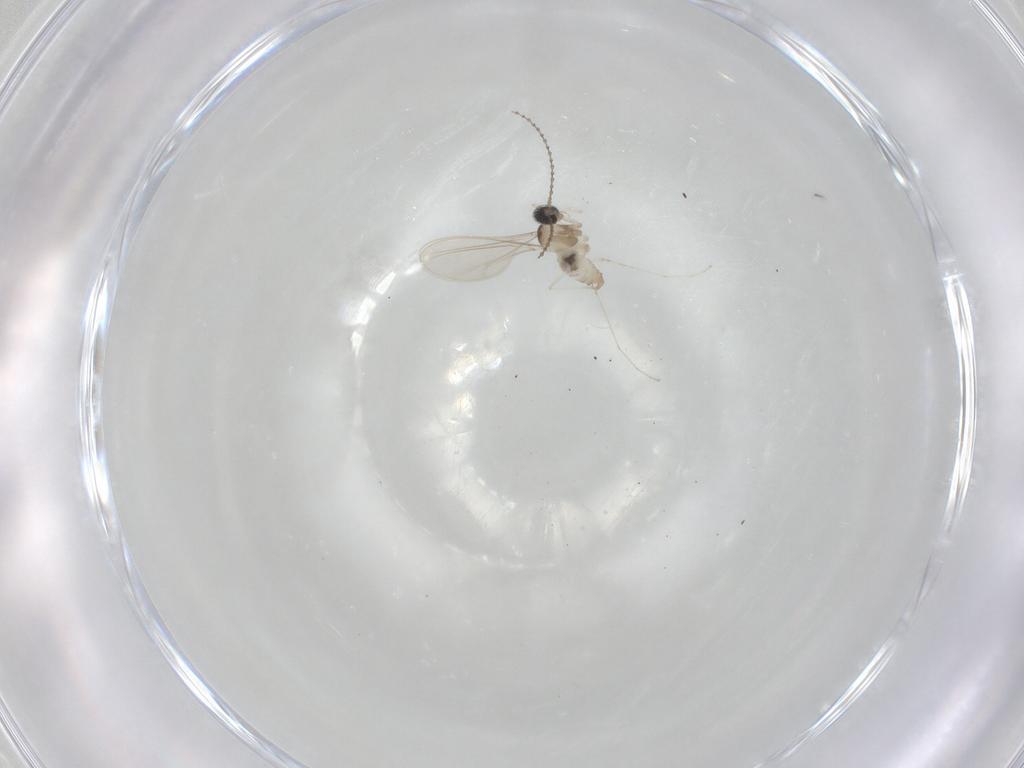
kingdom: Animalia
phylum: Arthropoda
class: Insecta
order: Diptera
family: Cecidomyiidae
